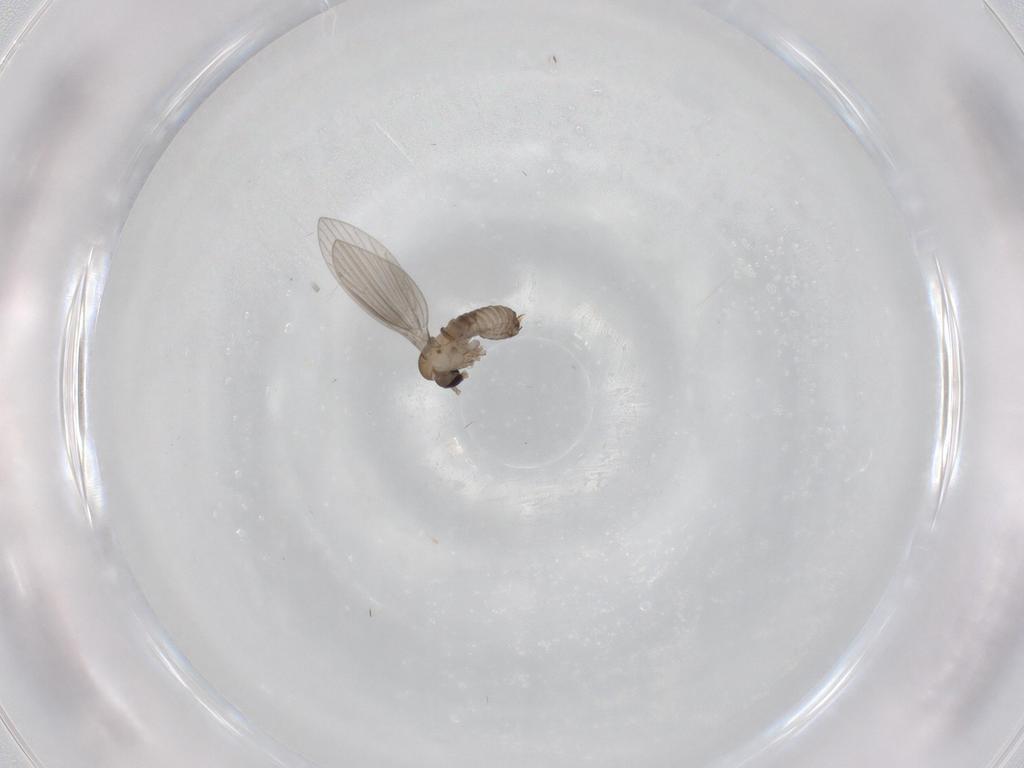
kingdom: Animalia
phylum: Arthropoda
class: Insecta
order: Diptera
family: Psychodidae
